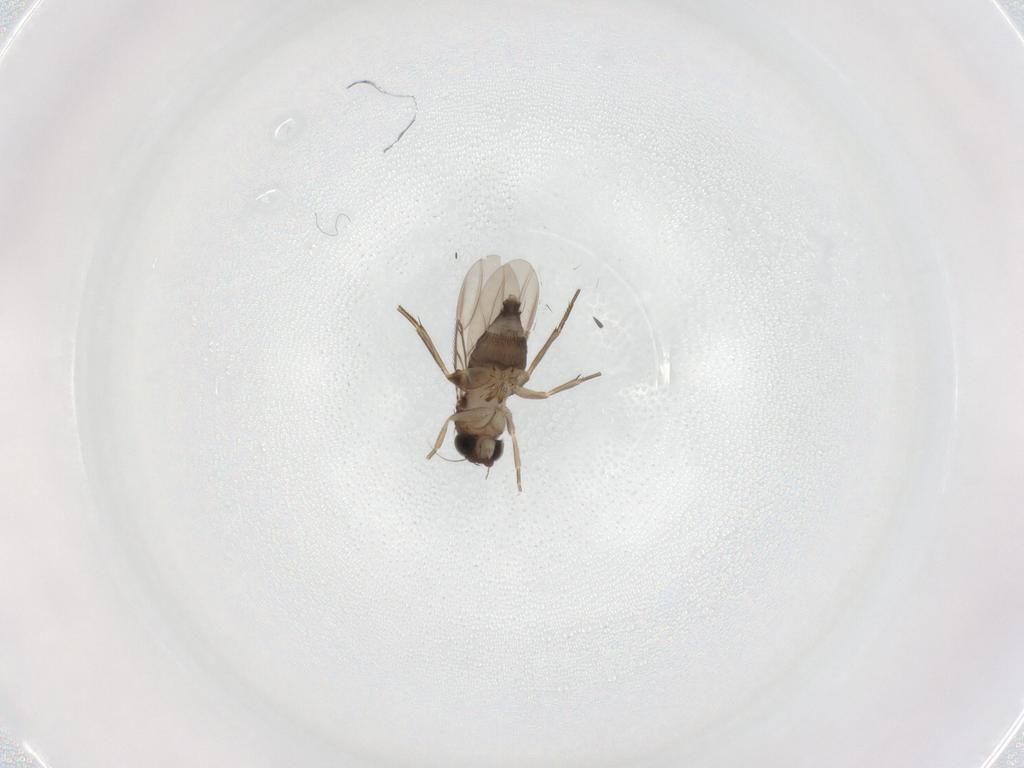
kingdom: Animalia
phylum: Arthropoda
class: Insecta
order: Diptera
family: Phoridae
